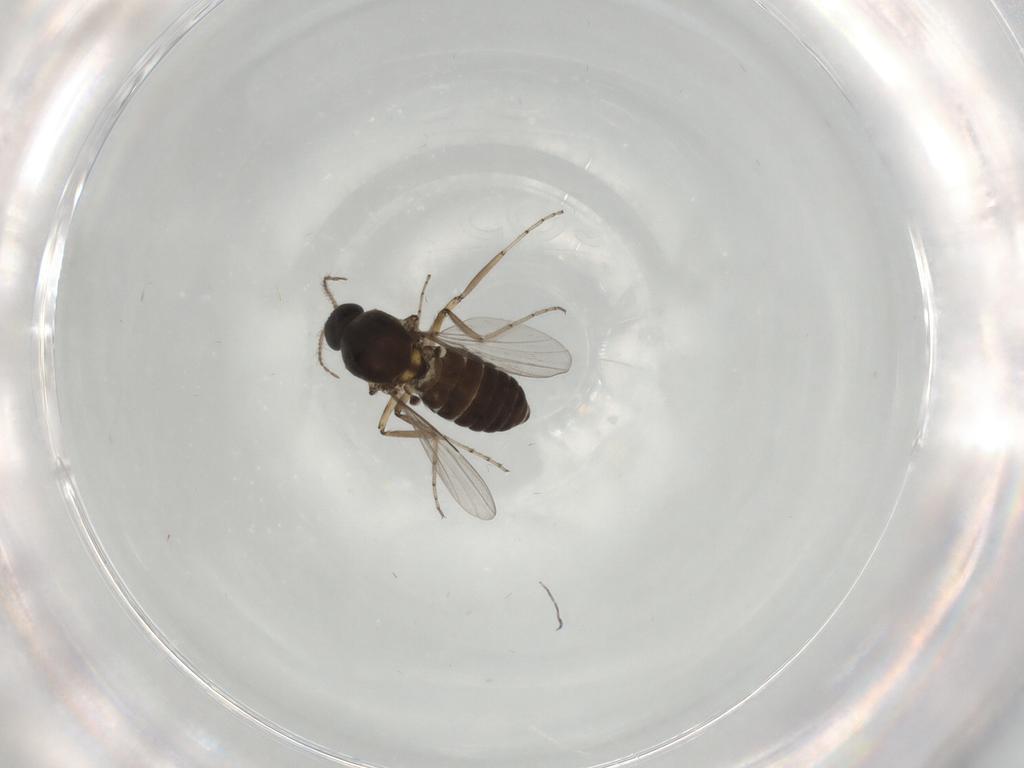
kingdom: Animalia
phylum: Arthropoda
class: Insecta
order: Diptera
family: Ceratopogonidae
